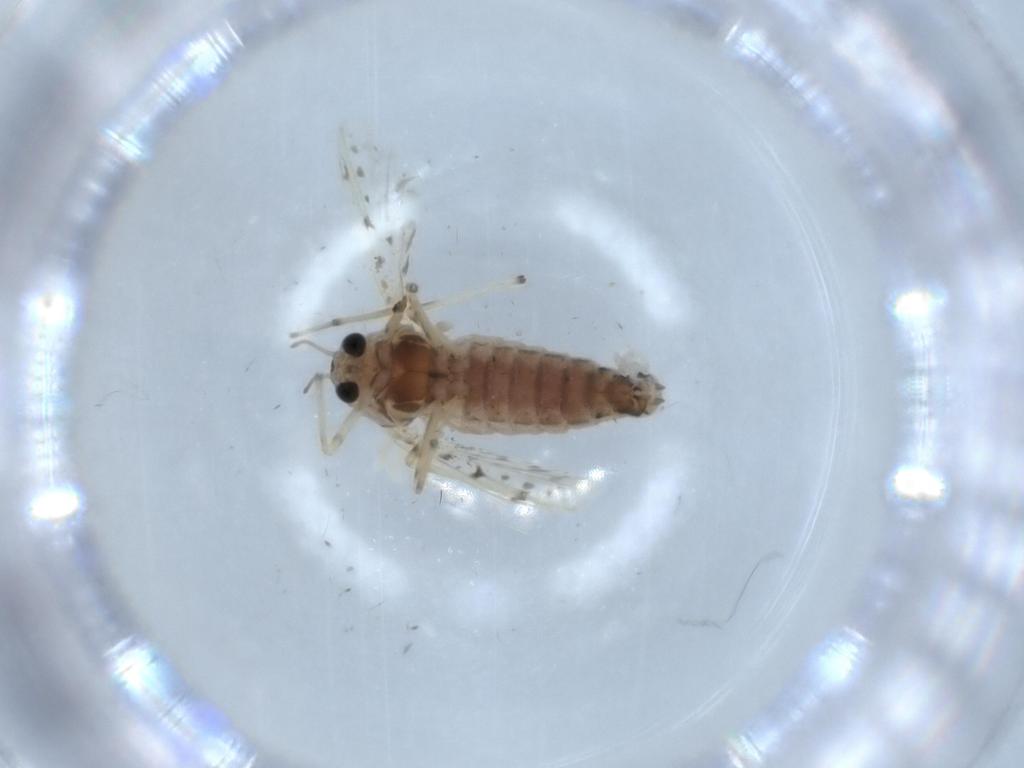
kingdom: Animalia
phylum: Arthropoda
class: Insecta
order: Diptera
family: Chironomidae
